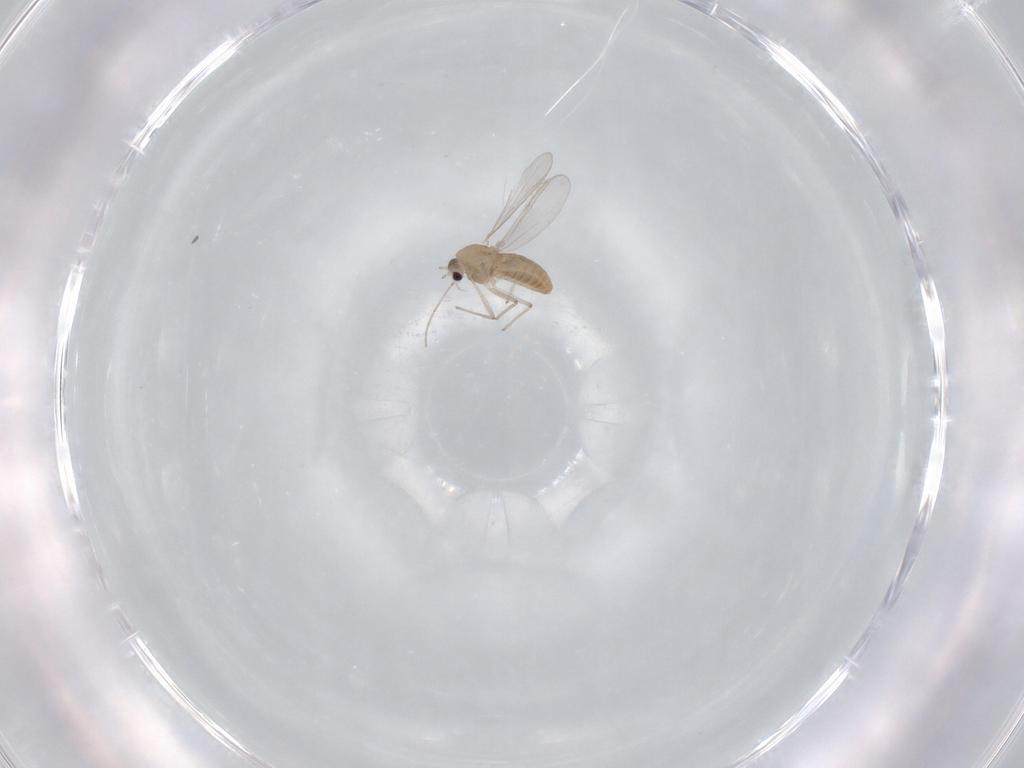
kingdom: Animalia
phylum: Arthropoda
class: Insecta
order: Diptera
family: Chironomidae
